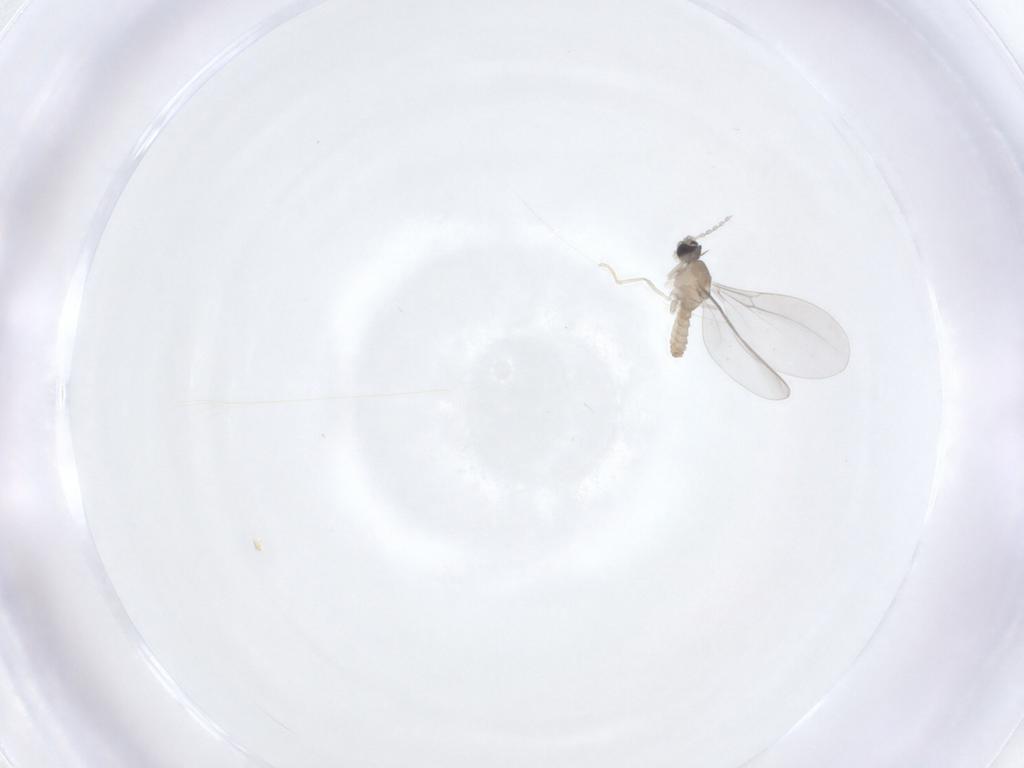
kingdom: Animalia
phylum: Arthropoda
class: Insecta
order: Diptera
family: Cecidomyiidae
